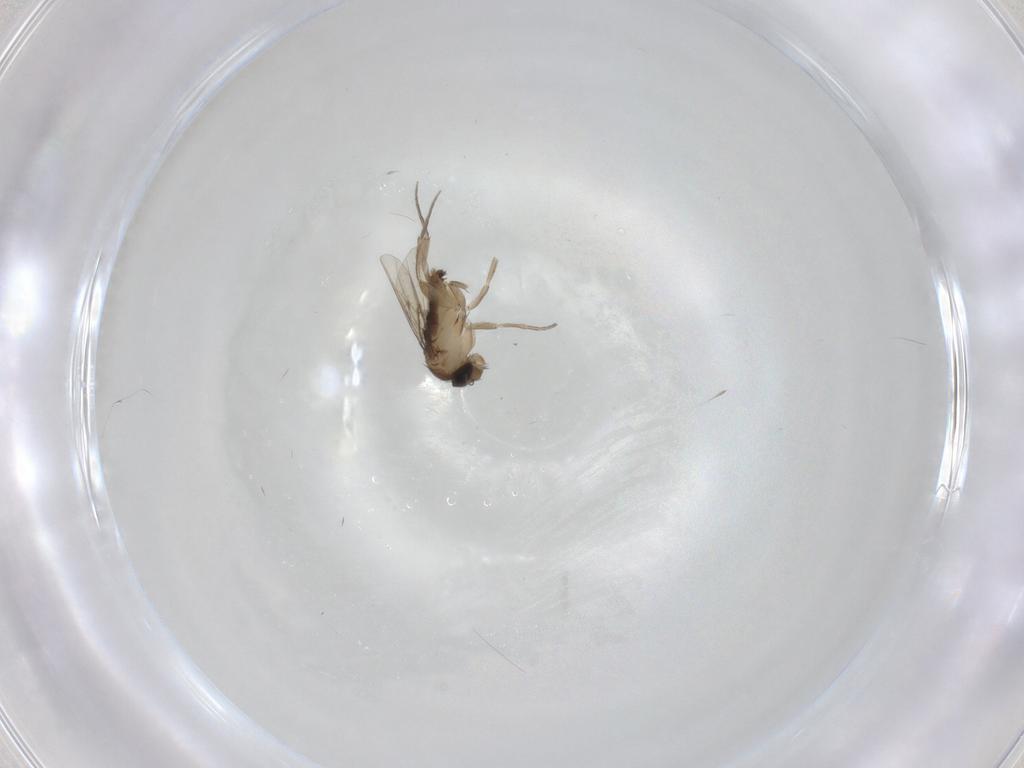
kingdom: Animalia
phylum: Arthropoda
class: Insecta
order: Diptera
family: Phoridae
